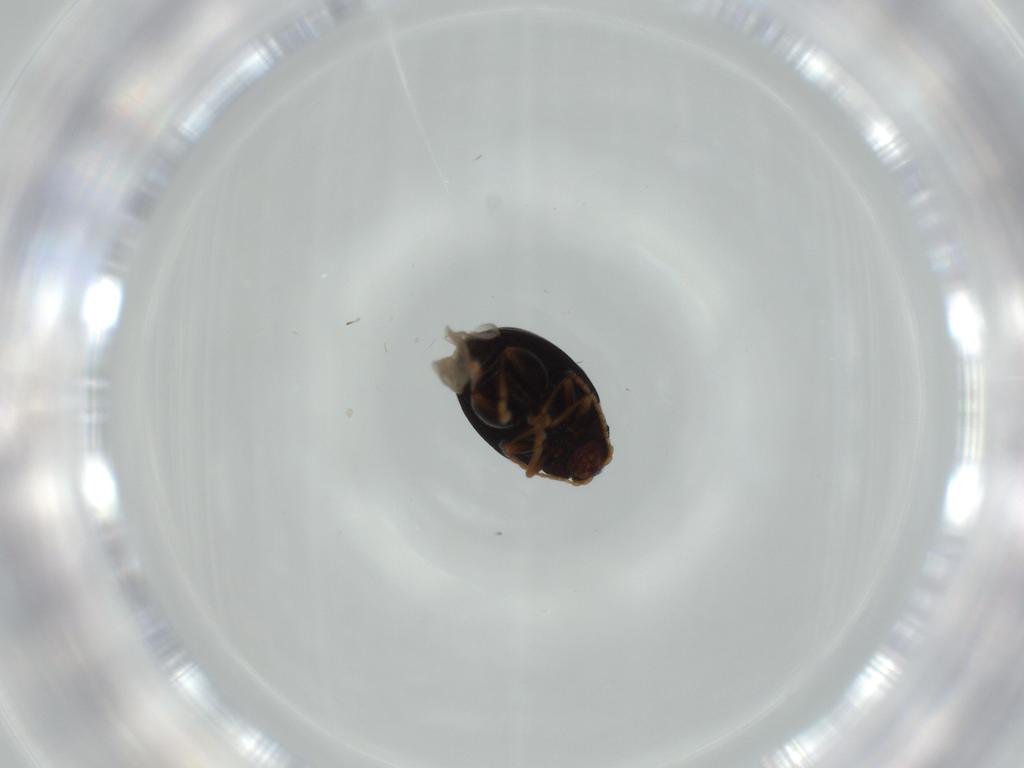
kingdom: Animalia
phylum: Arthropoda
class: Insecta
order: Coleoptera
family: Chrysomelidae
